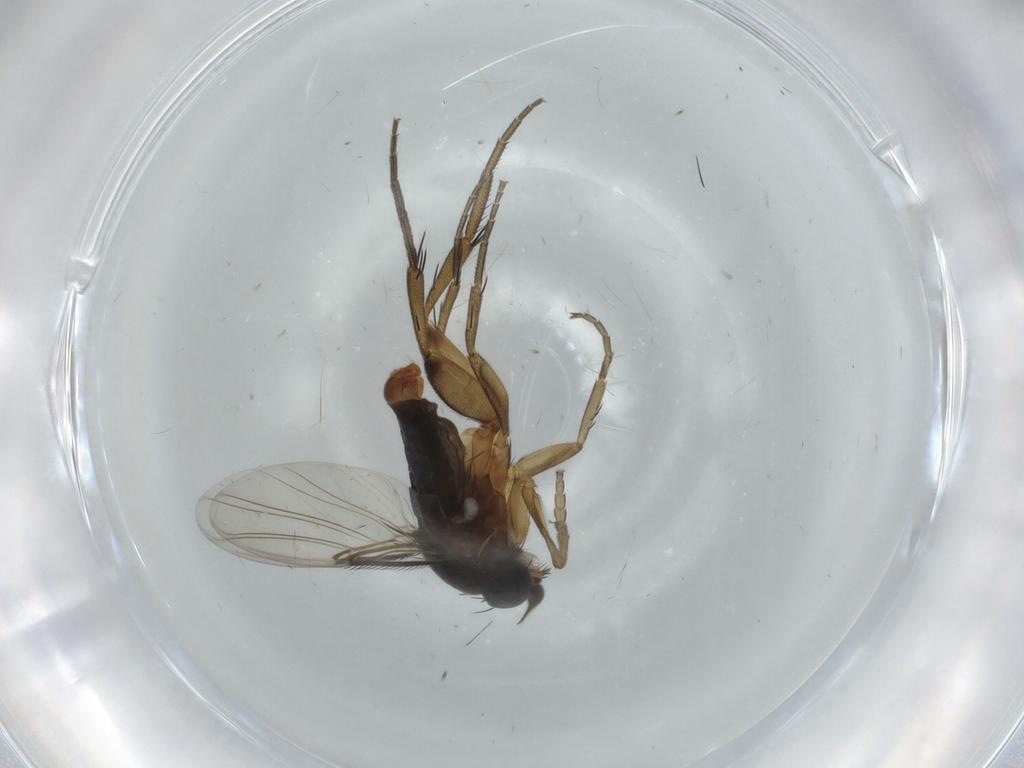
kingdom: Animalia
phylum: Arthropoda
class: Insecta
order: Diptera
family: Phoridae
